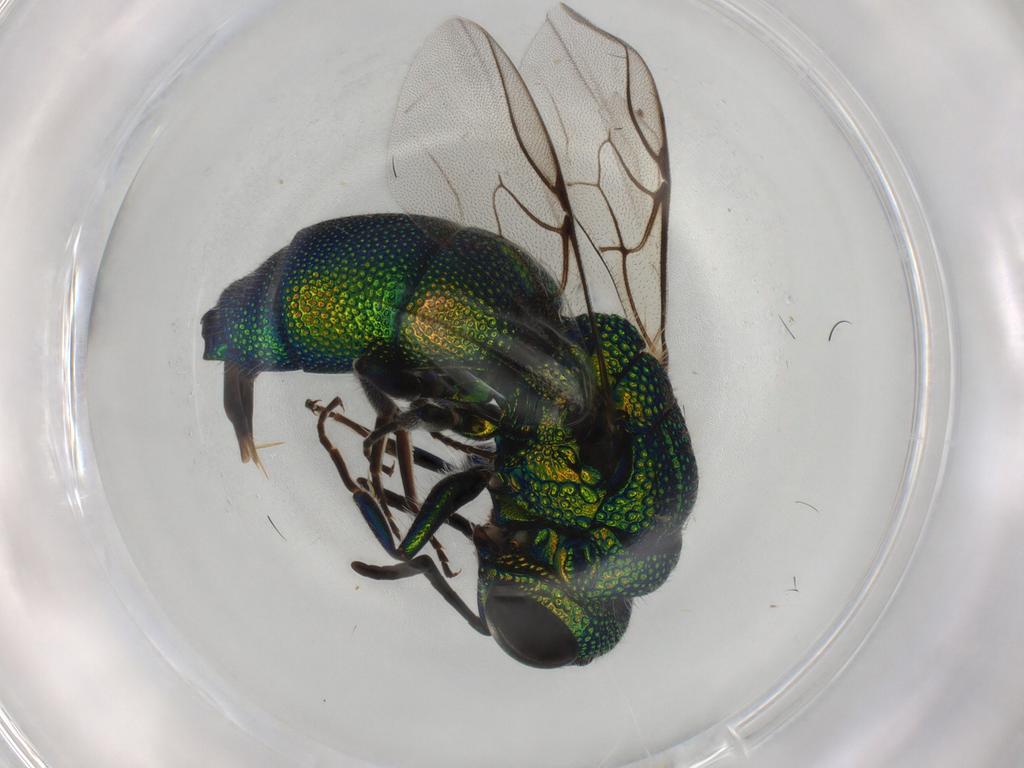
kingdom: Animalia
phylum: Arthropoda
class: Insecta
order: Hymenoptera
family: Chrysididae
